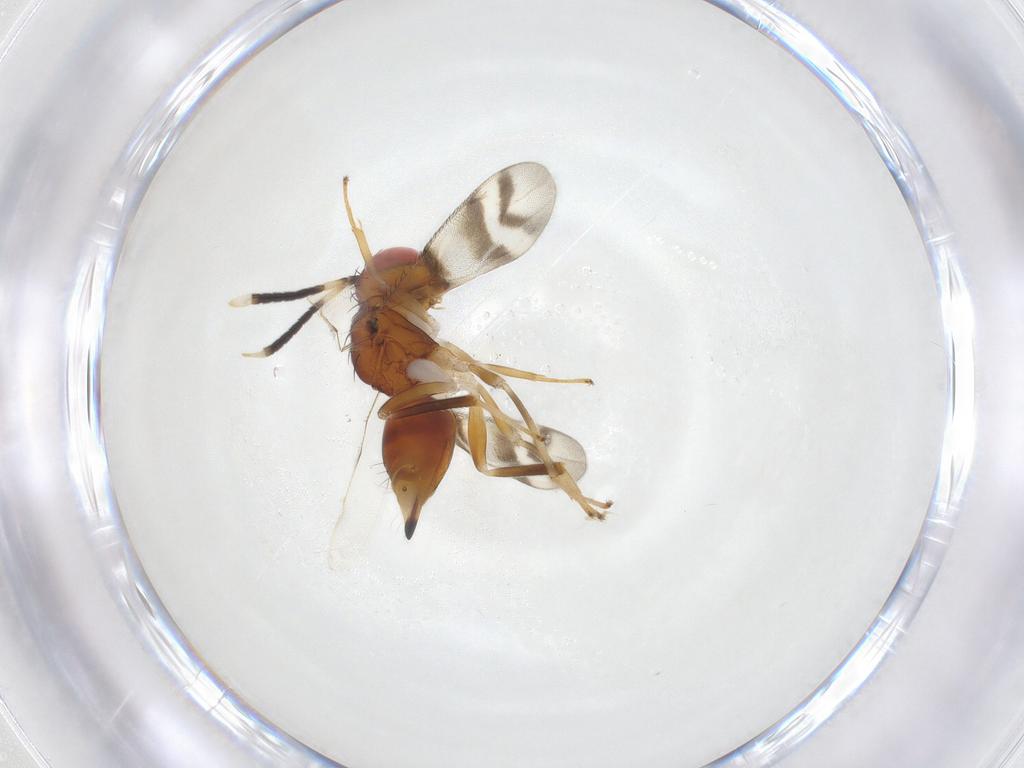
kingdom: Animalia
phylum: Arthropoda
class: Insecta
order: Hymenoptera
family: Diparidae
